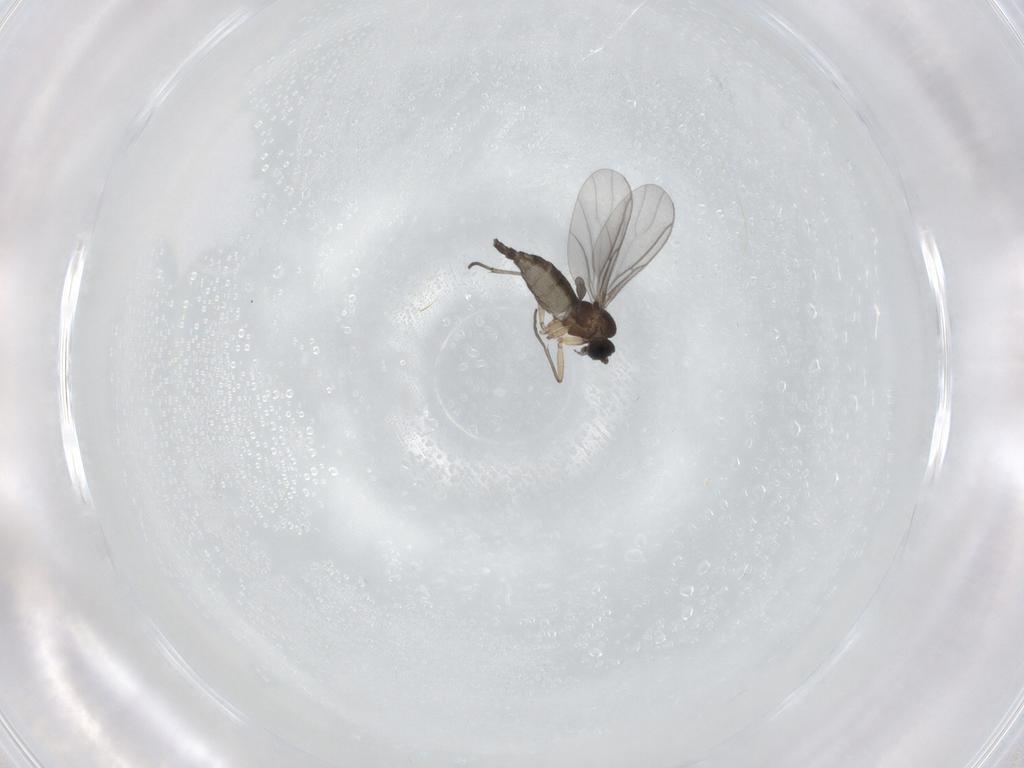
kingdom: Animalia
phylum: Arthropoda
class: Insecta
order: Diptera
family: Sciaridae
